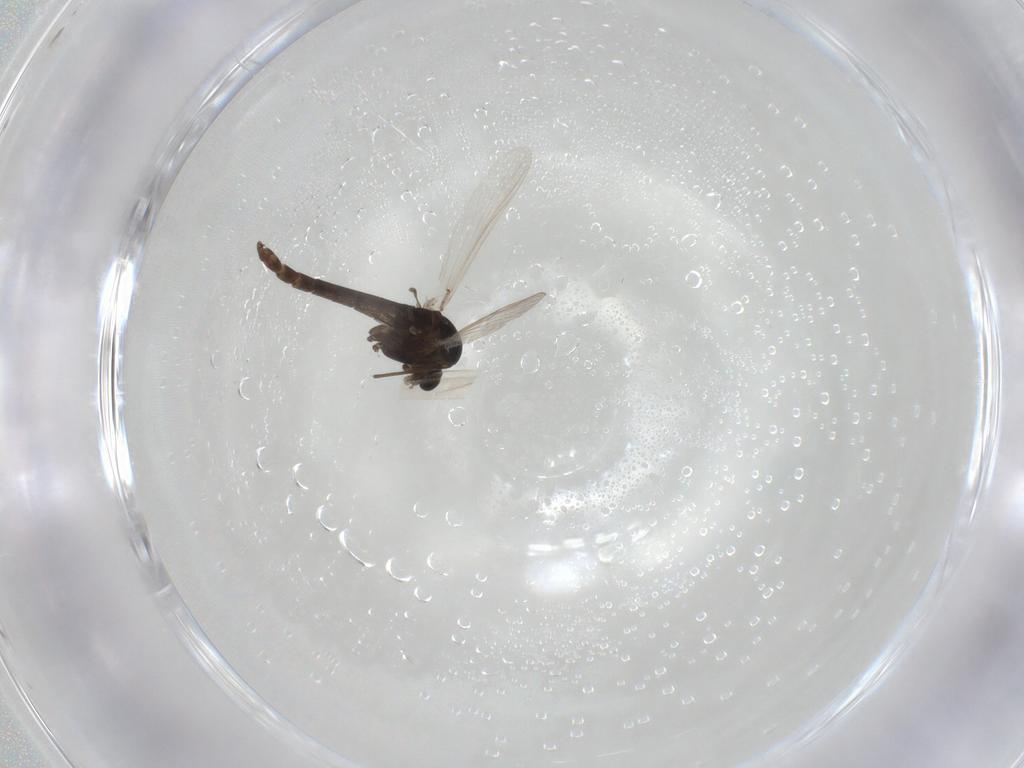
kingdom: Animalia
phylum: Arthropoda
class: Insecta
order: Diptera
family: Chironomidae
